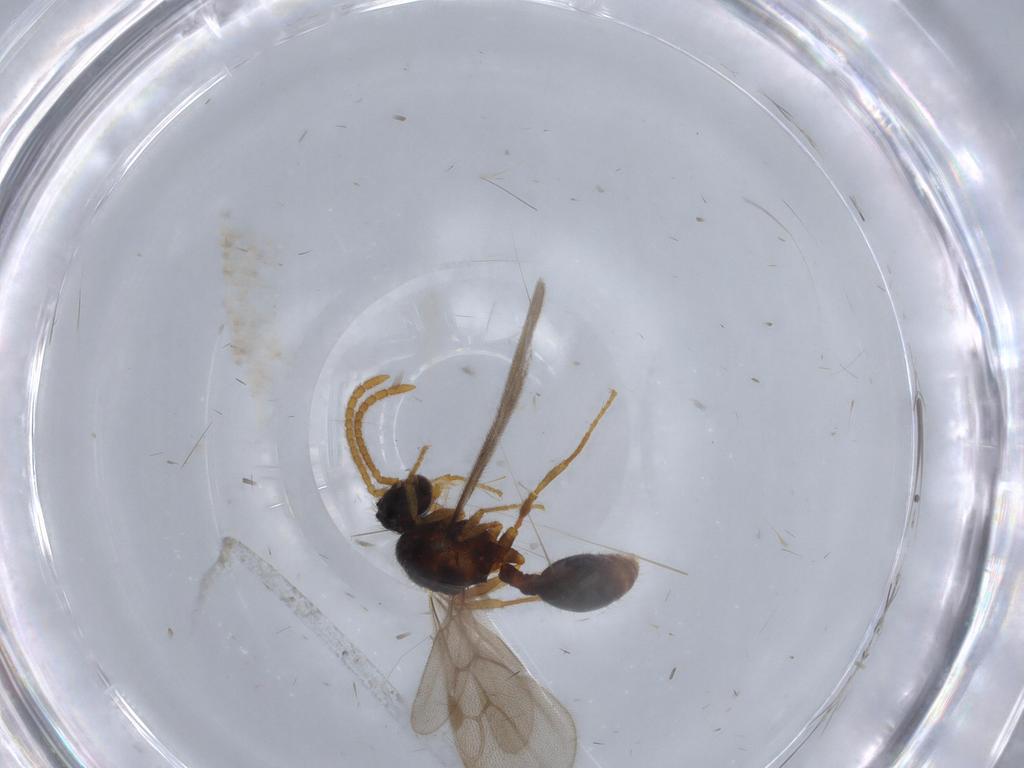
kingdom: Animalia
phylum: Arthropoda
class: Insecta
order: Hymenoptera
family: Formicidae
